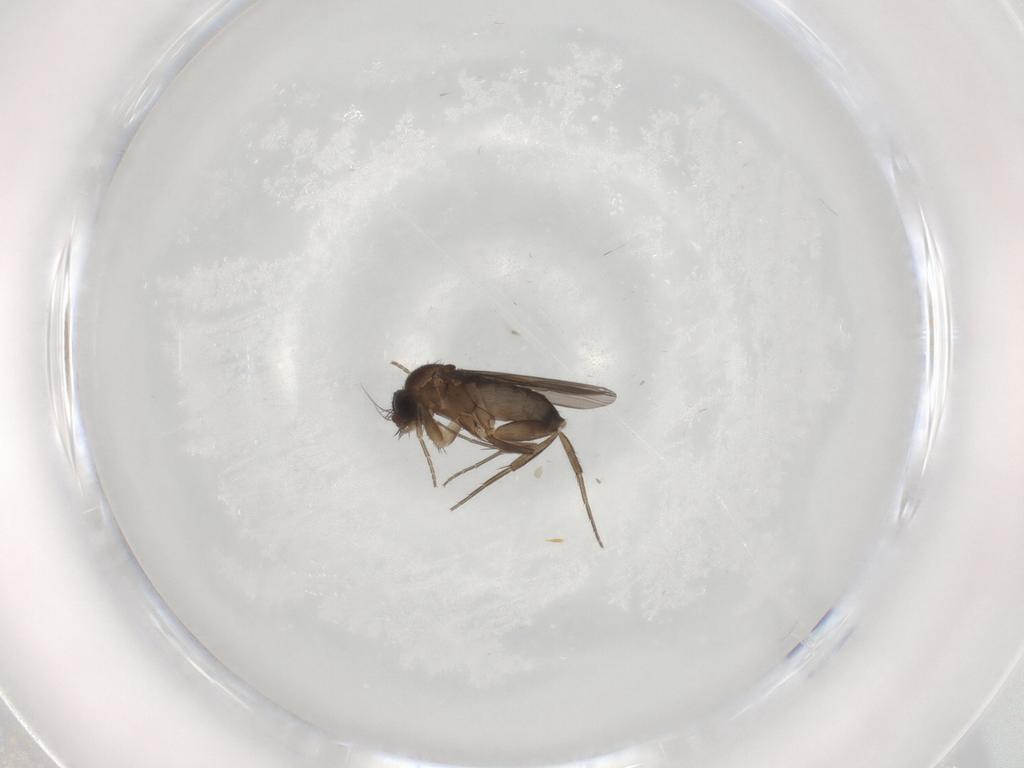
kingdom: Animalia
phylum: Arthropoda
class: Insecta
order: Diptera
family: Phoridae
